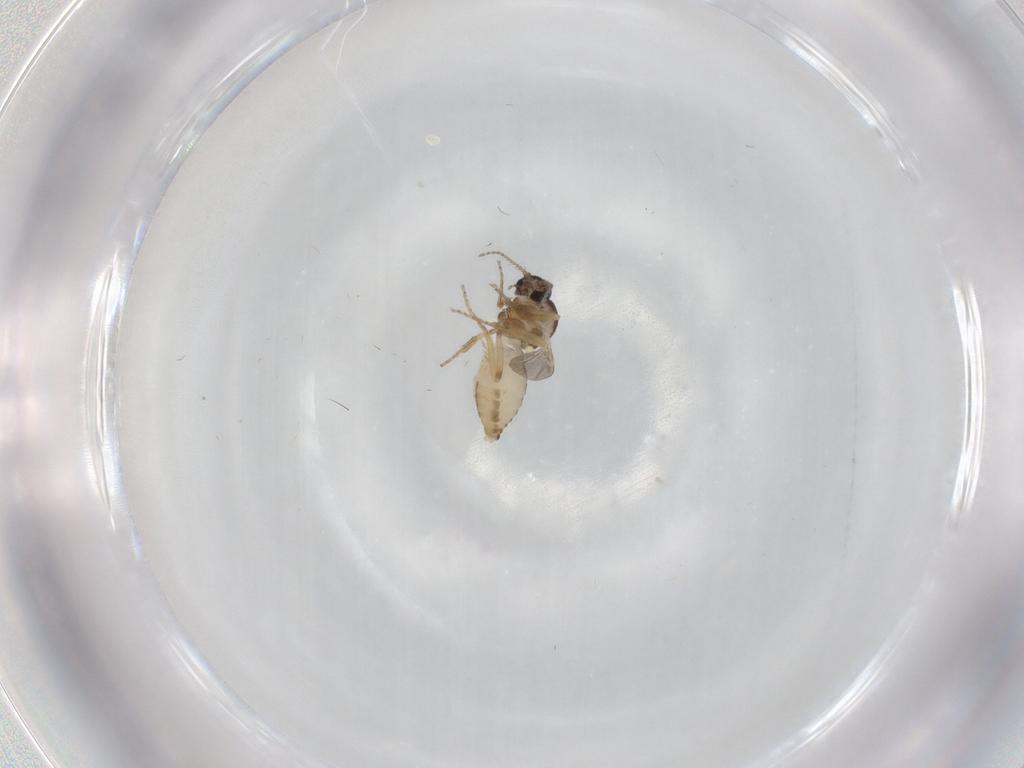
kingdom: Animalia
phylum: Arthropoda
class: Insecta
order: Diptera
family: Ceratopogonidae
